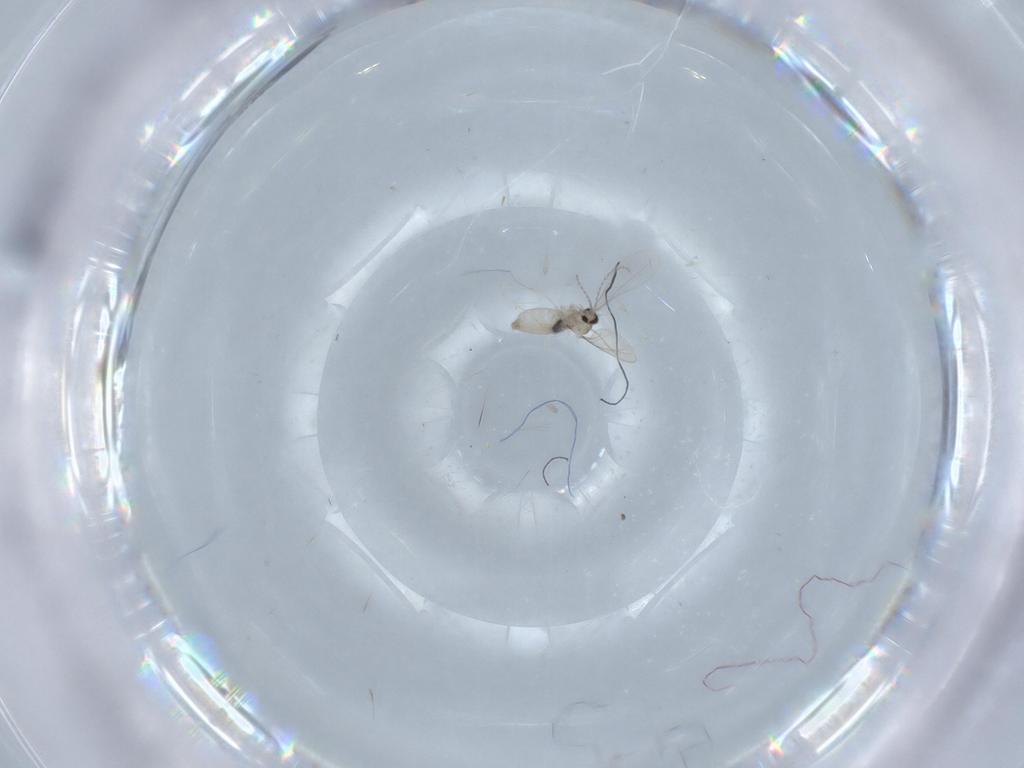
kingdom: Animalia
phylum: Arthropoda
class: Insecta
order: Diptera
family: Cecidomyiidae
